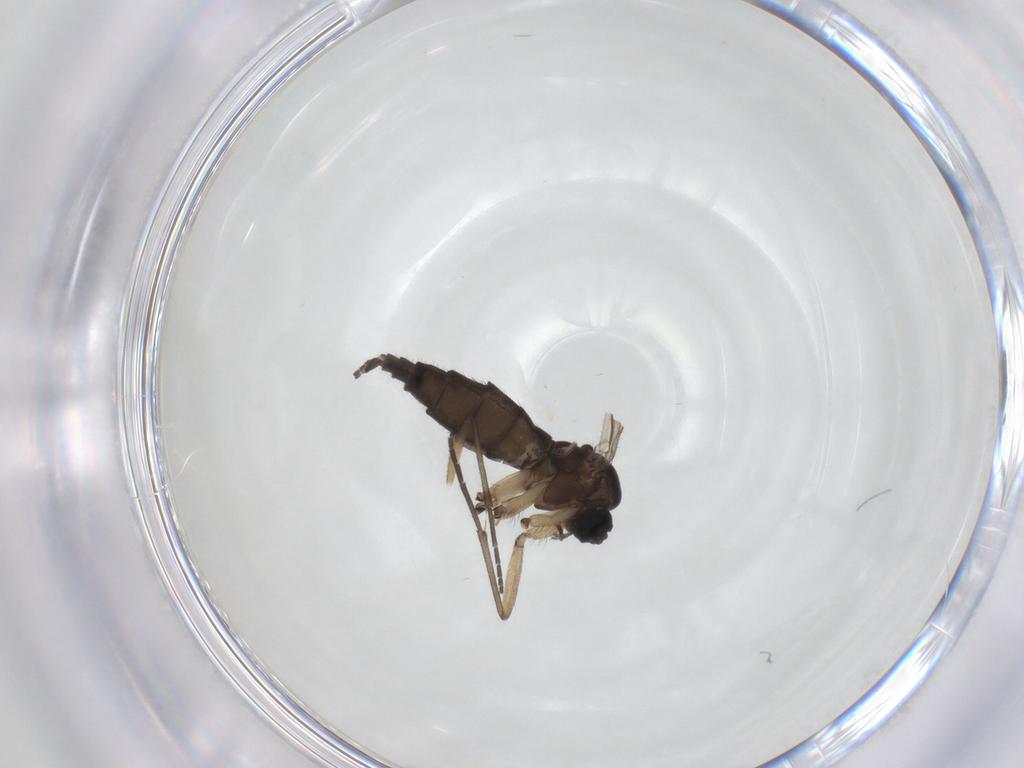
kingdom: Animalia
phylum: Arthropoda
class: Insecta
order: Diptera
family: Sciaridae
